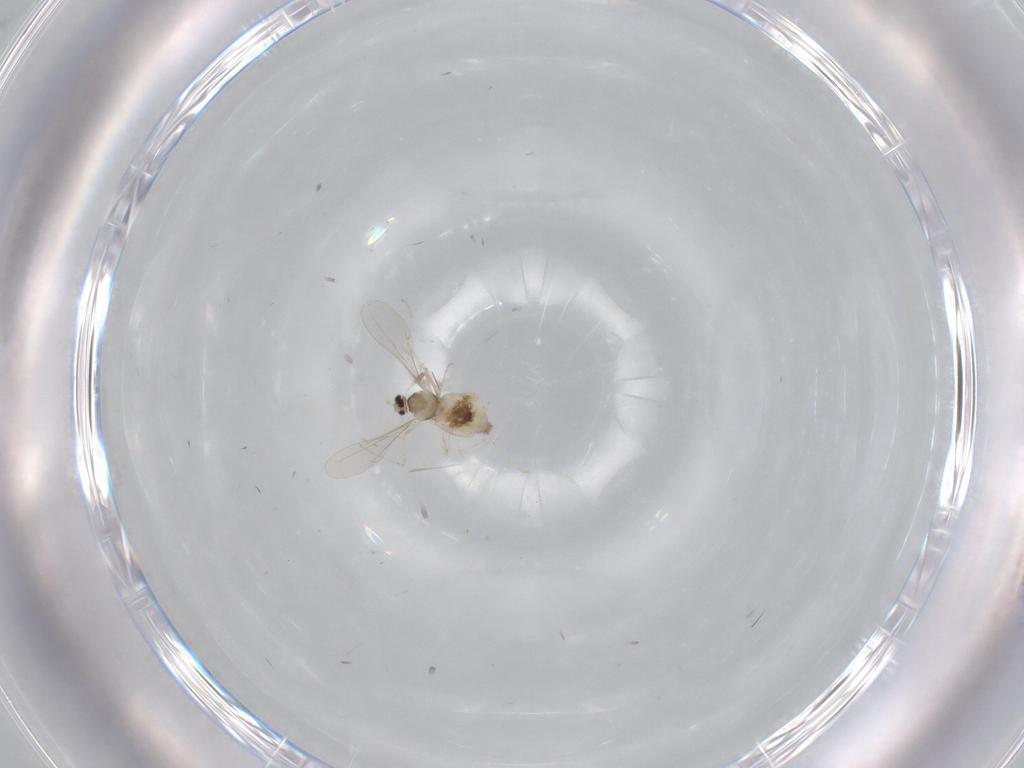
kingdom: Animalia
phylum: Arthropoda
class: Insecta
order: Diptera
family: Cecidomyiidae
